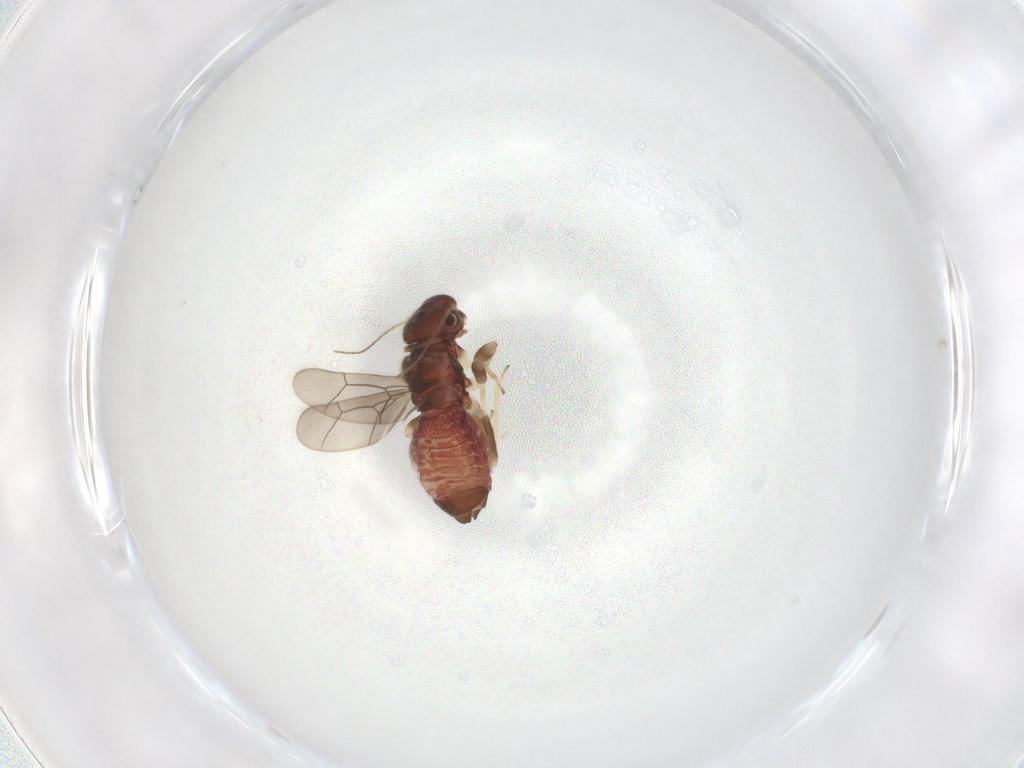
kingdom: Animalia
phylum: Arthropoda
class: Insecta
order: Psocodea
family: Archipsocidae
